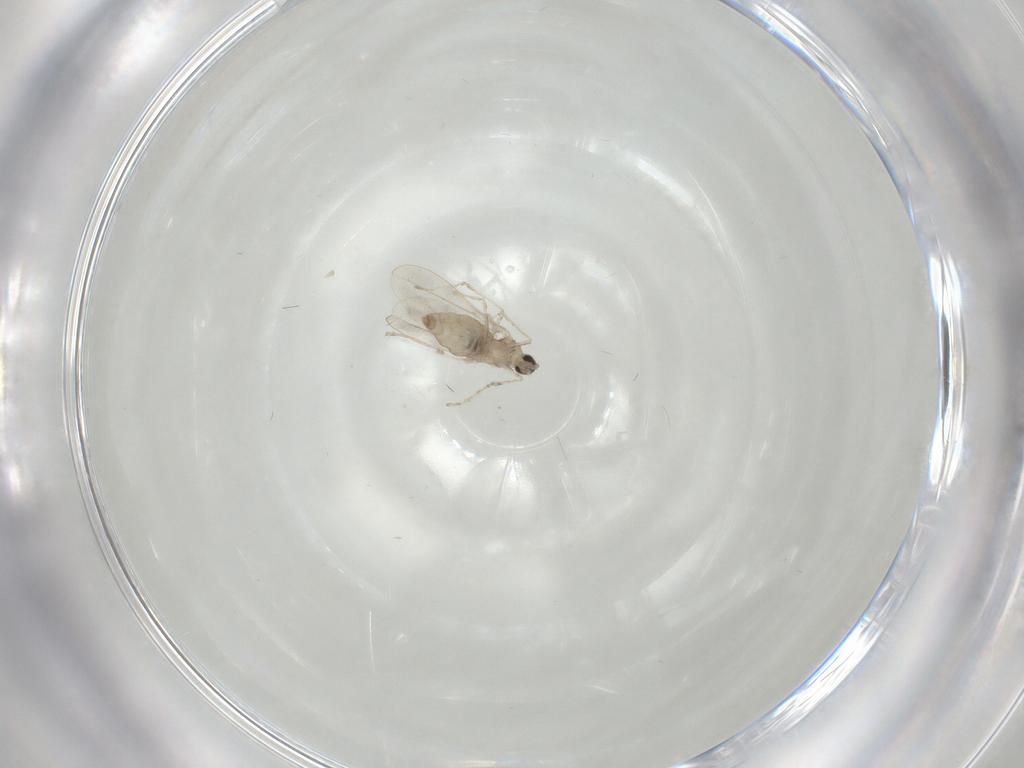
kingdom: Animalia
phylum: Arthropoda
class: Insecta
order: Diptera
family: Cecidomyiidae
